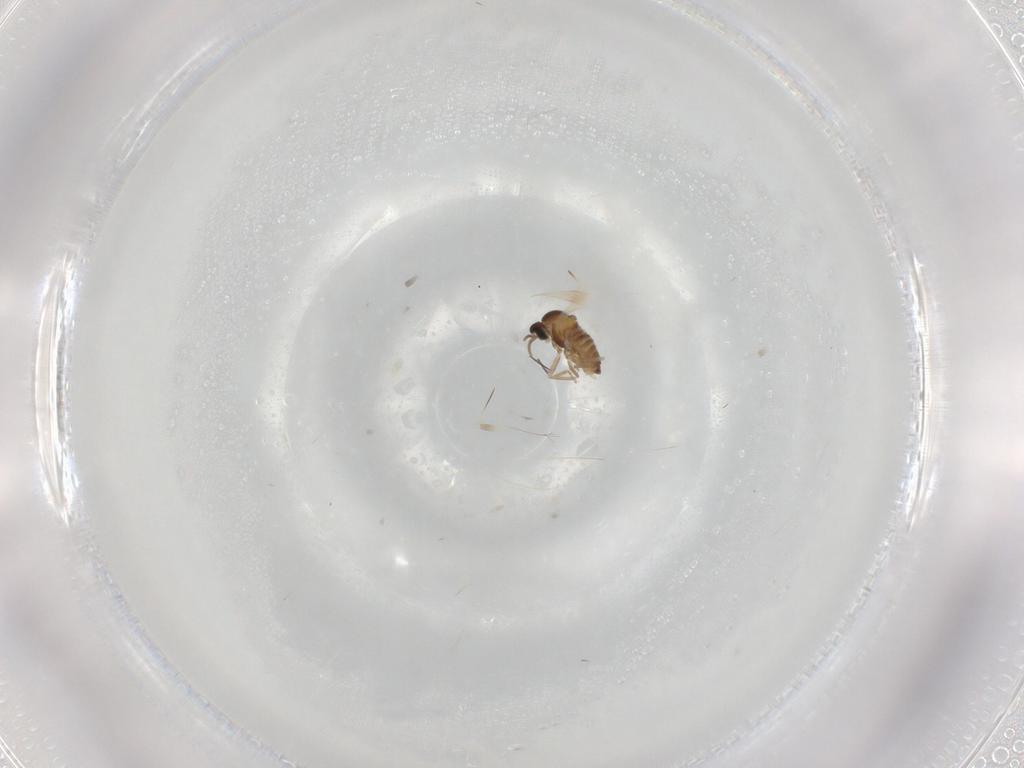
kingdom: Animalia
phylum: Arthropoda
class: Insecta
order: Diptera
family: Cecidomyiidae
